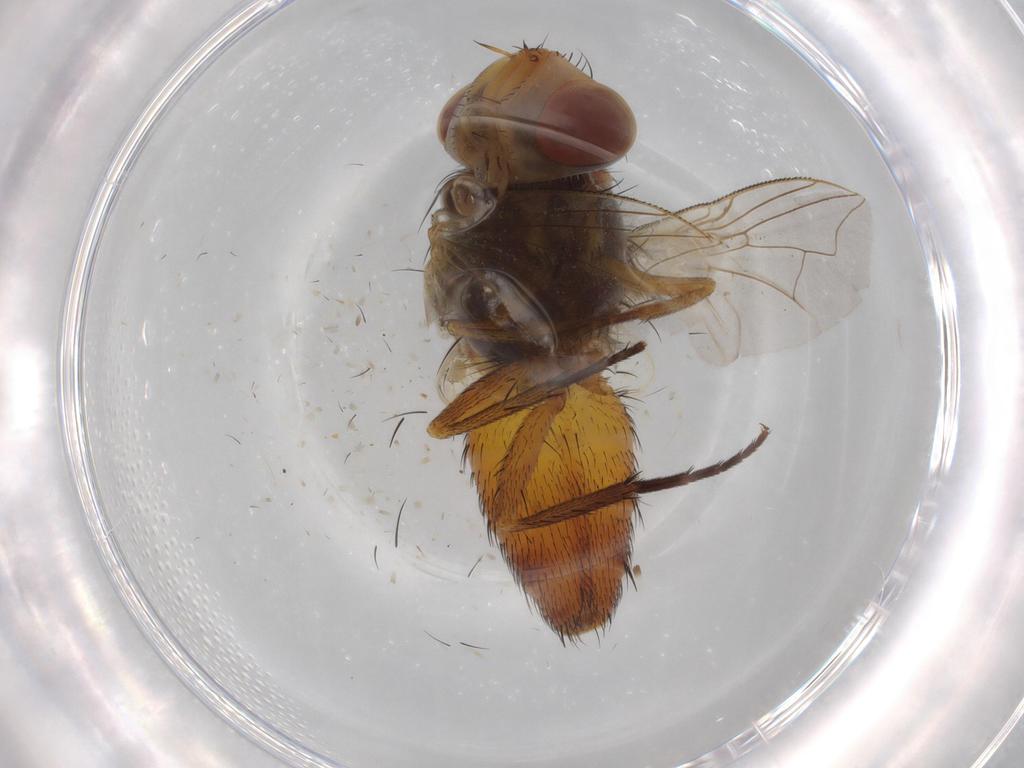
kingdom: Animalia
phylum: Arthropoda
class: Insecta
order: Diptera
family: Sarcophagidae
